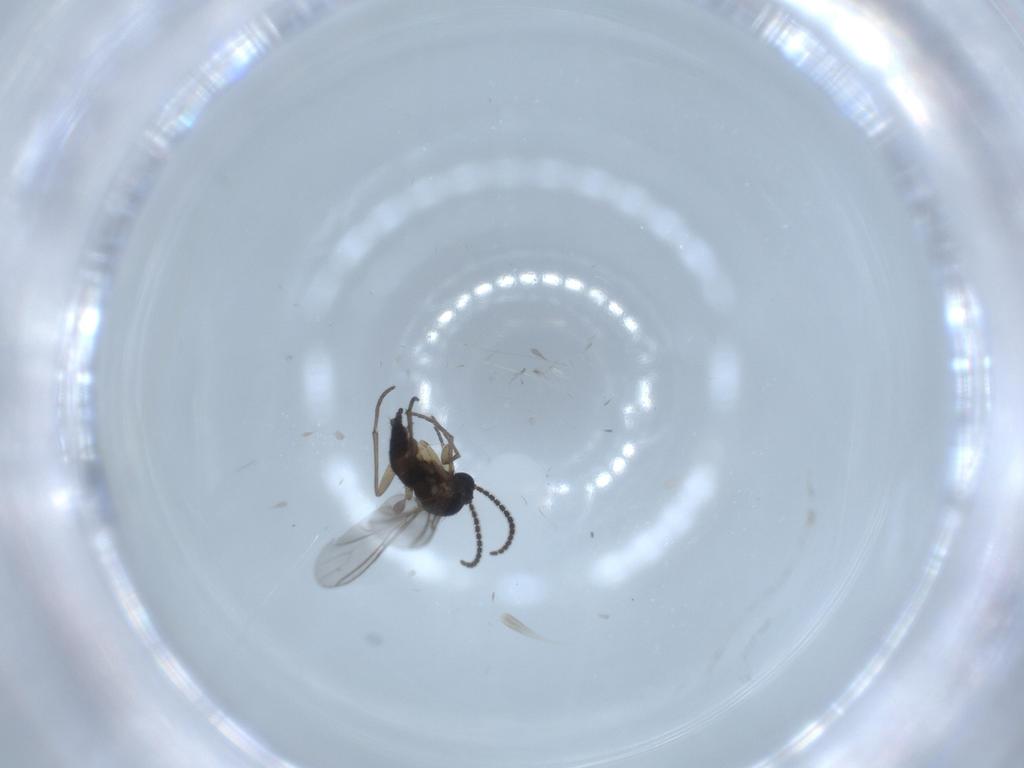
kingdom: Animalia
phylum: Arthropoda
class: Insecta
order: Diptera
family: Sciaridae
